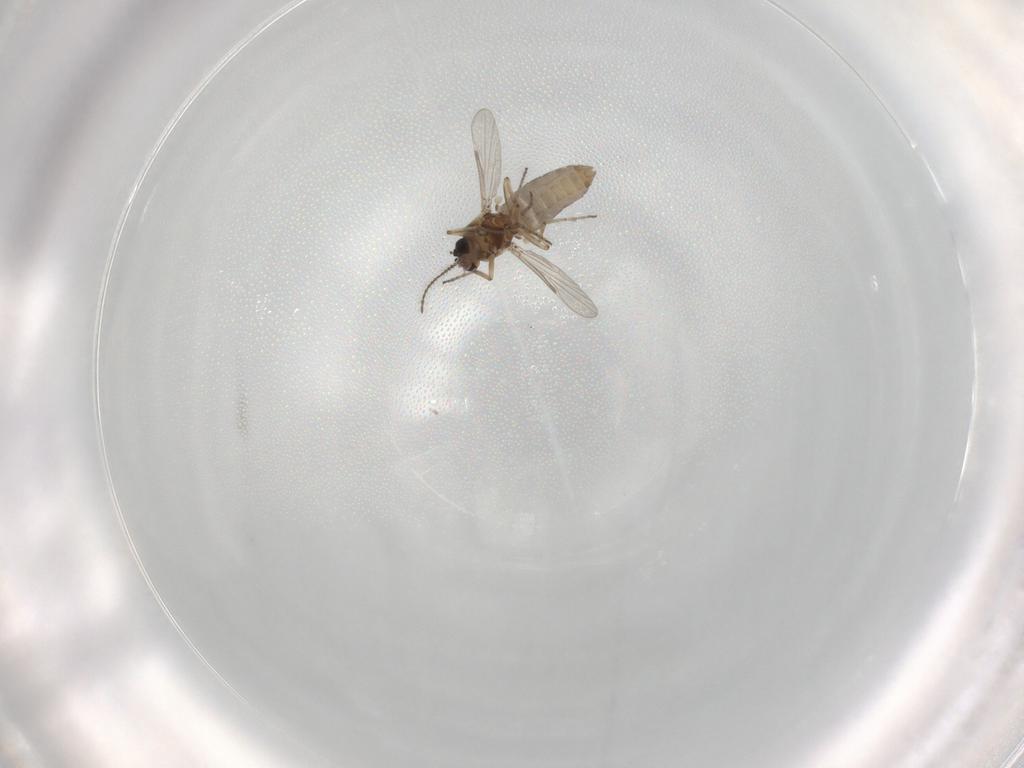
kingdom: Animalia
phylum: Arthropoda
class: Insecta
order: Diptera
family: Ceratopogonidae
